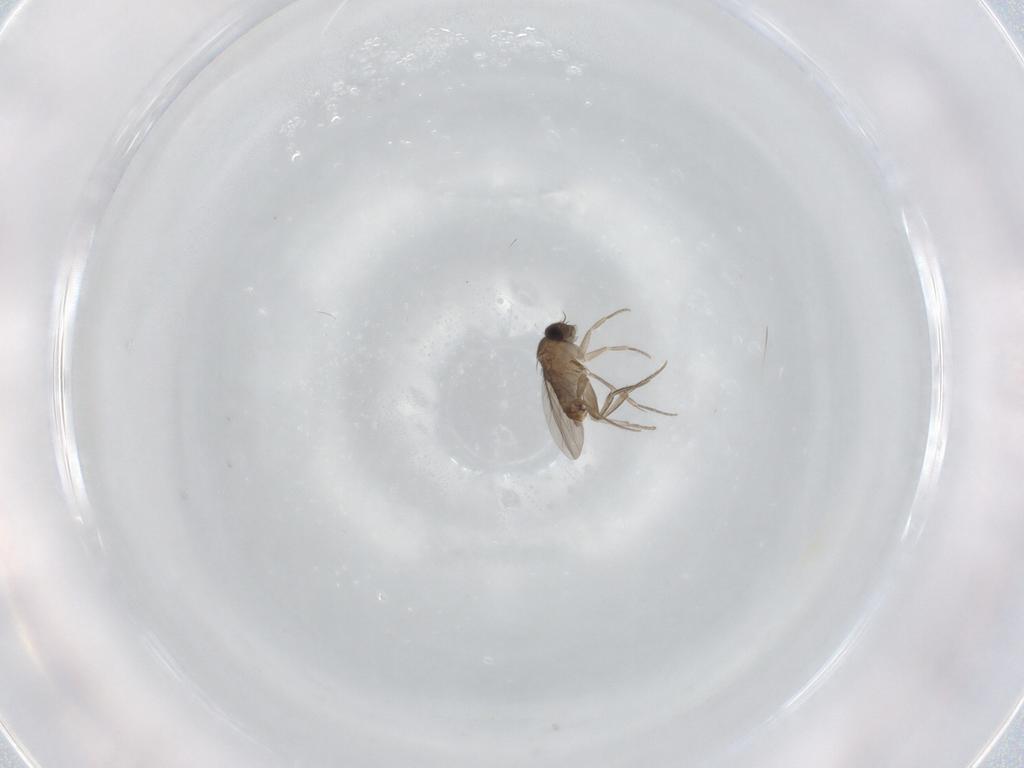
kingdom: Animalia
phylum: Arthropoda
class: Insecta
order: Diptera
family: Phoridae
